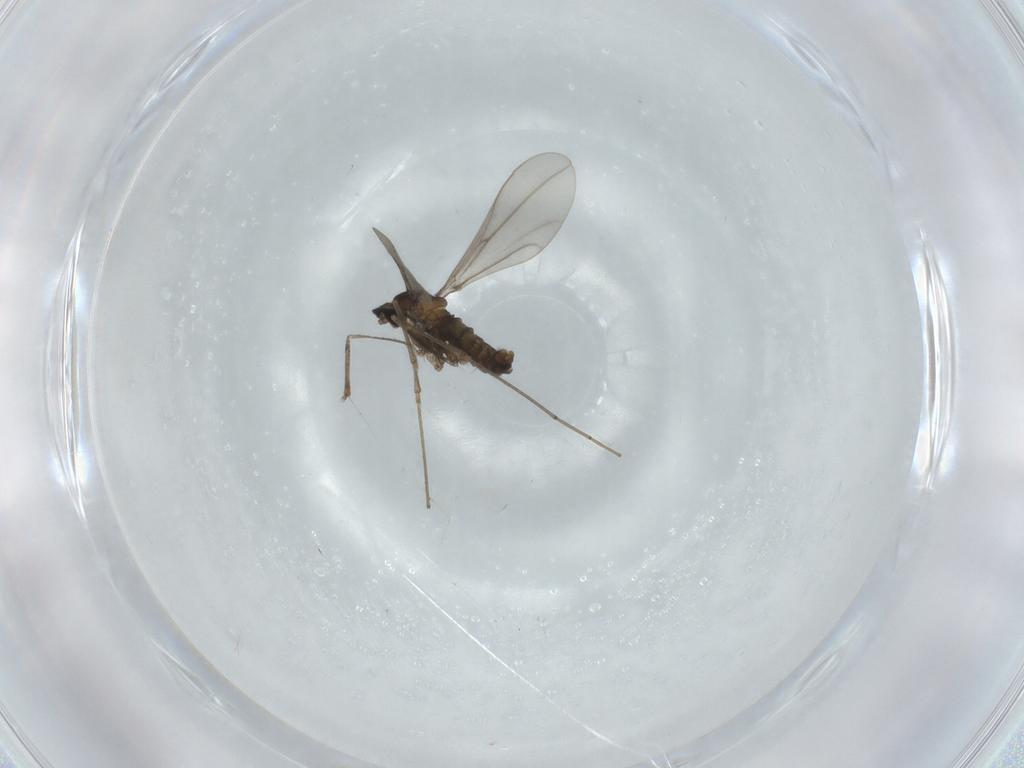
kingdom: Animalia
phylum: Arthropoda
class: Insecta
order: Diptera
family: Cecidomyiidae
